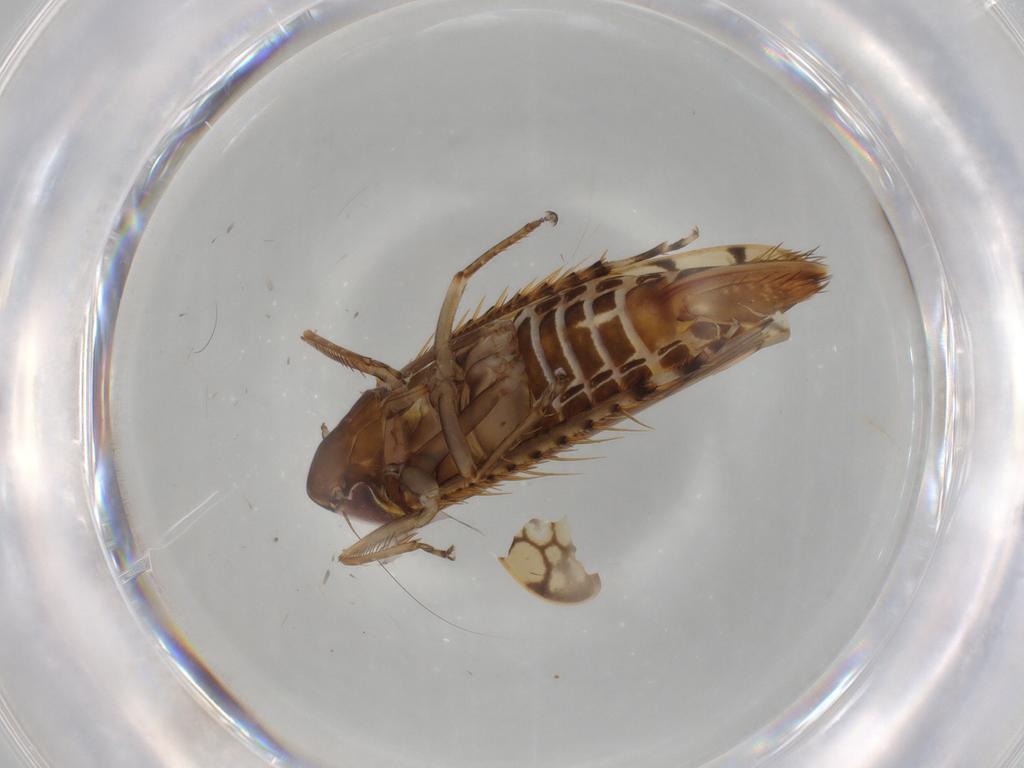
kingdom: Animalia
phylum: Arthropoda
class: Insecta
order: Hemiptera
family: Cicadellidae
